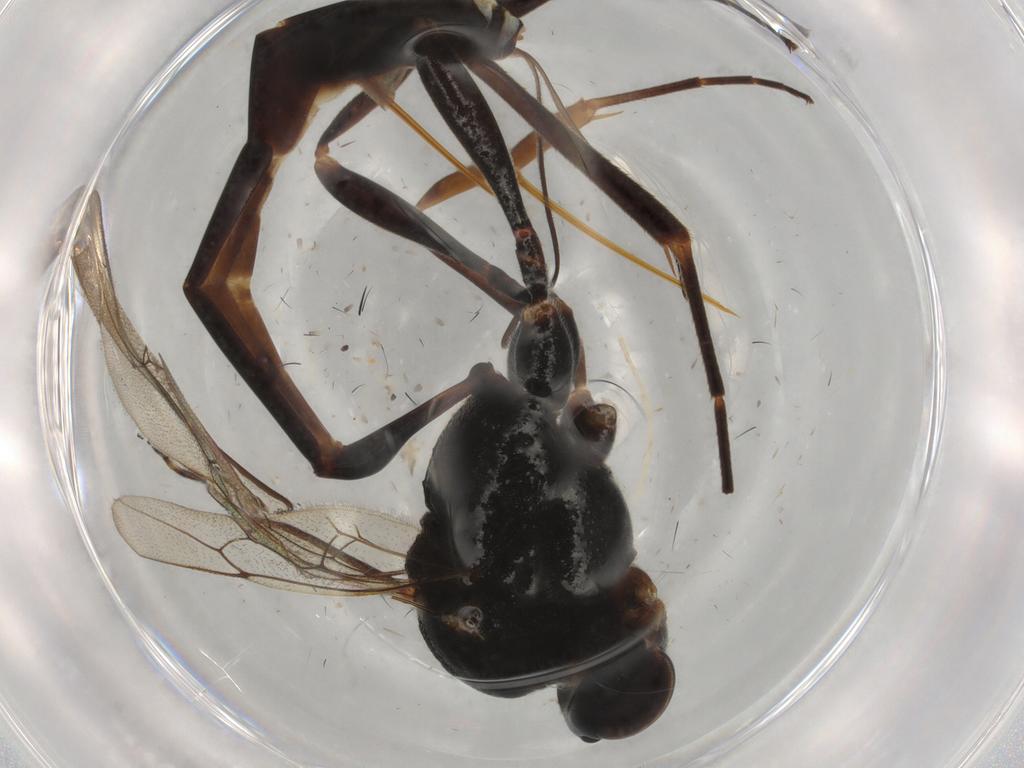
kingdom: Animalia
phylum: Arthropoda
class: Insecta
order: Hymenoptera
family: Ichneumonidae
